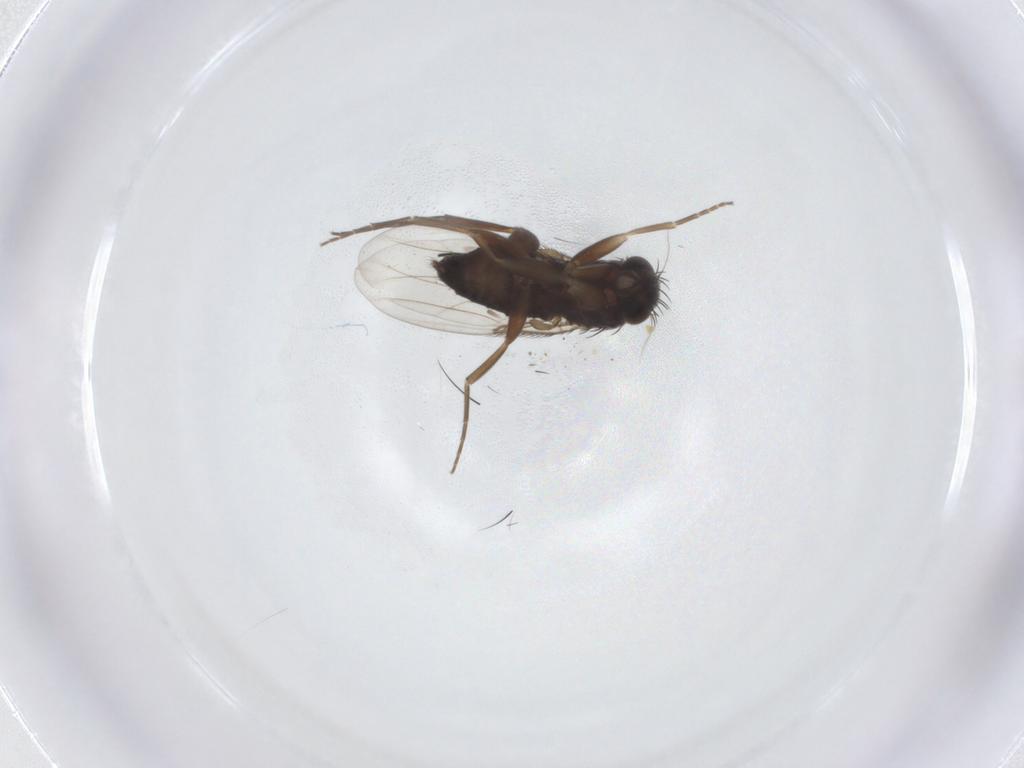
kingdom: Animalia
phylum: Arthropoda
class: Insecta
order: Diptera
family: Phoridae
